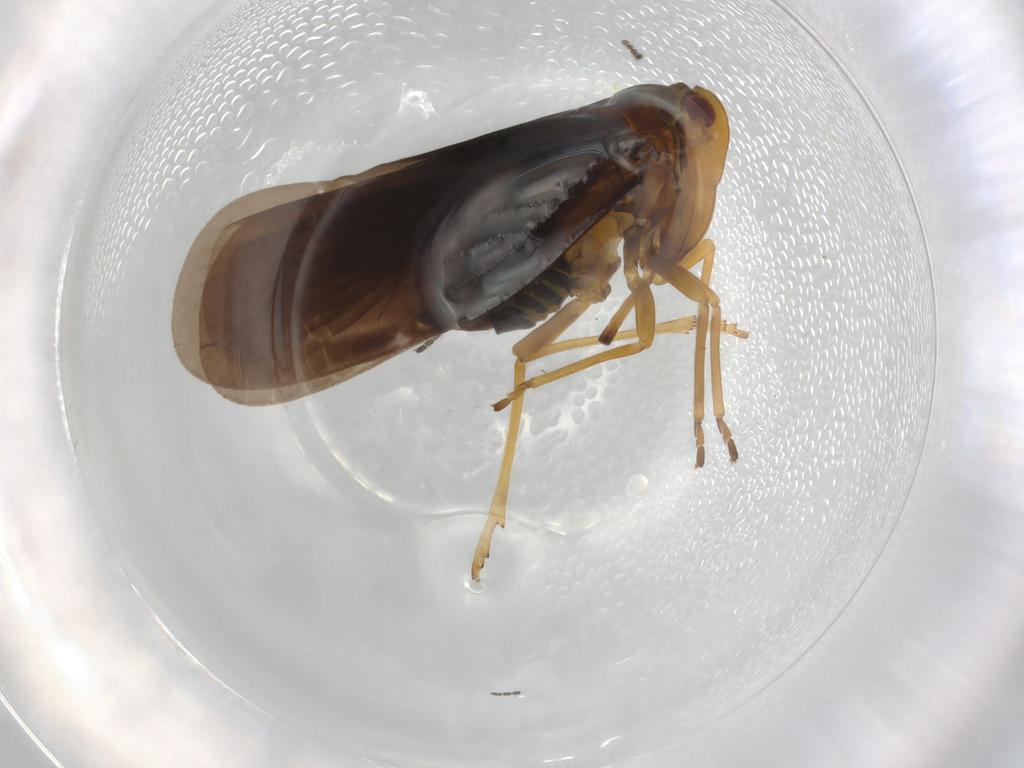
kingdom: Animalia
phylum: Arthropoda
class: Insecta
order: Hemiptera
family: Derbidae
